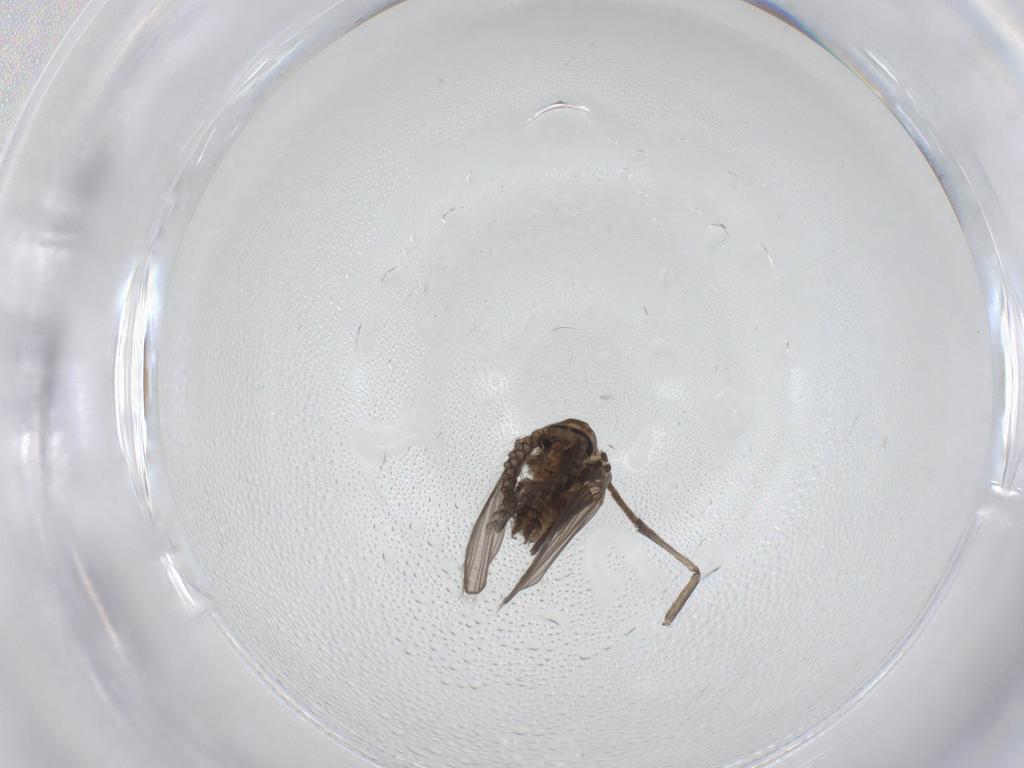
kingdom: Animalia
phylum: Arthropoda
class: Insecta
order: Diptera
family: Psychodidae
